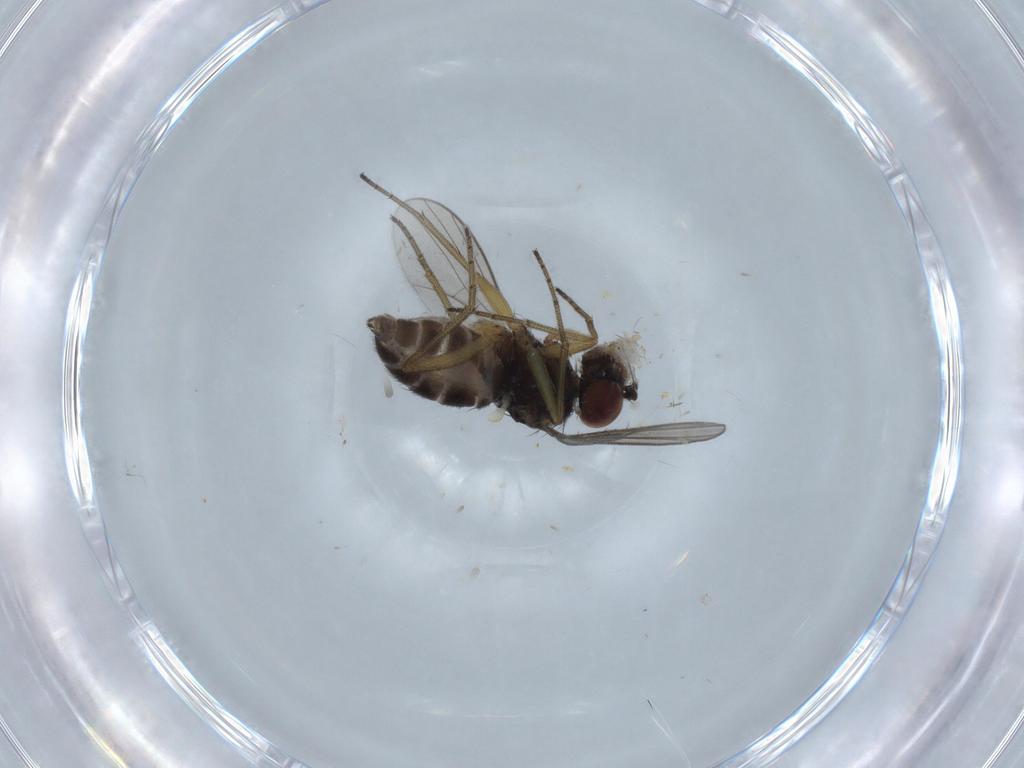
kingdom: Animalia
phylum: Arthropoda
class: Insecta
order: Diptera
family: Dolichopodidae
